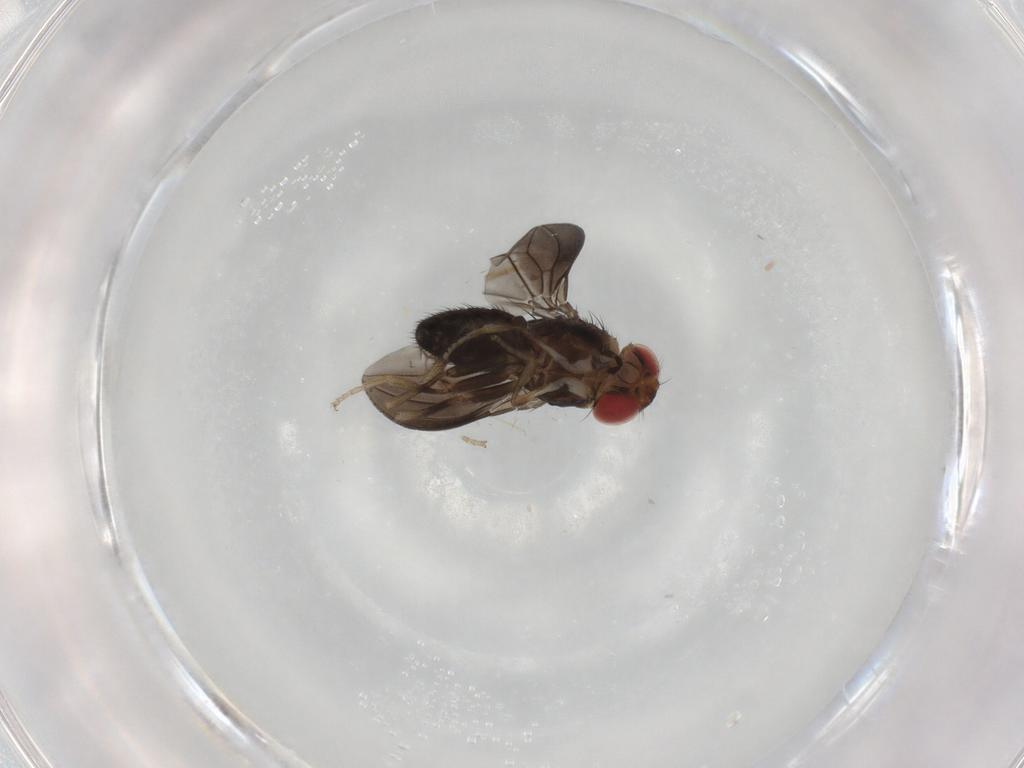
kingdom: Animalia
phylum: Arthropoda
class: Insecta
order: Diptera
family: Drosophilidae
